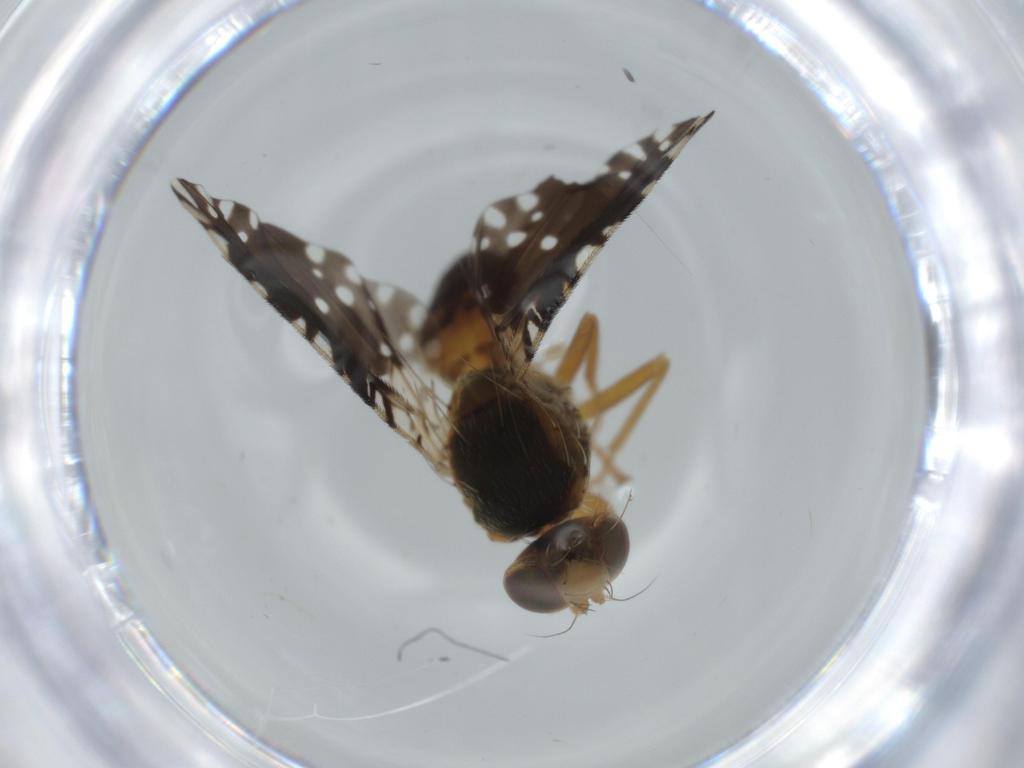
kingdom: Animalia
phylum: Arthropoda
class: Insecta
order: Diptera
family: Tephritidae
